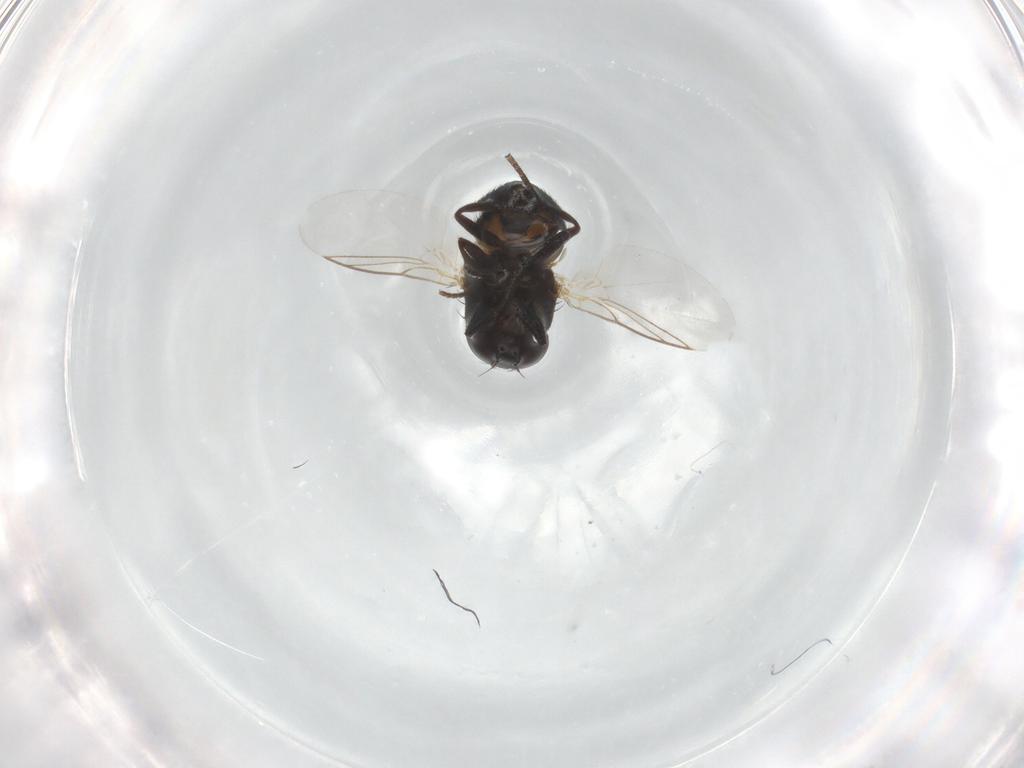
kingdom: Animalia
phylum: Arthropoda
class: Insecta
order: Diptera
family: Agromyzidae
